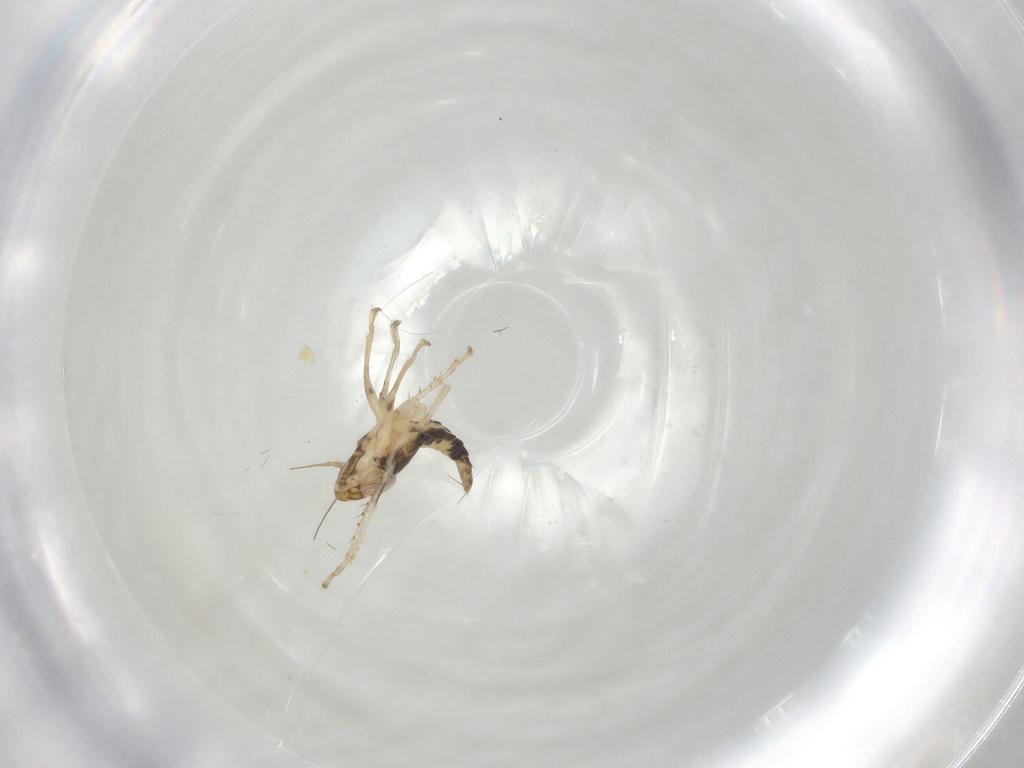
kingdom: Animalia
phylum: Arthropoda
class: Insecta
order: Hemiptera
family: Cicadellidae
